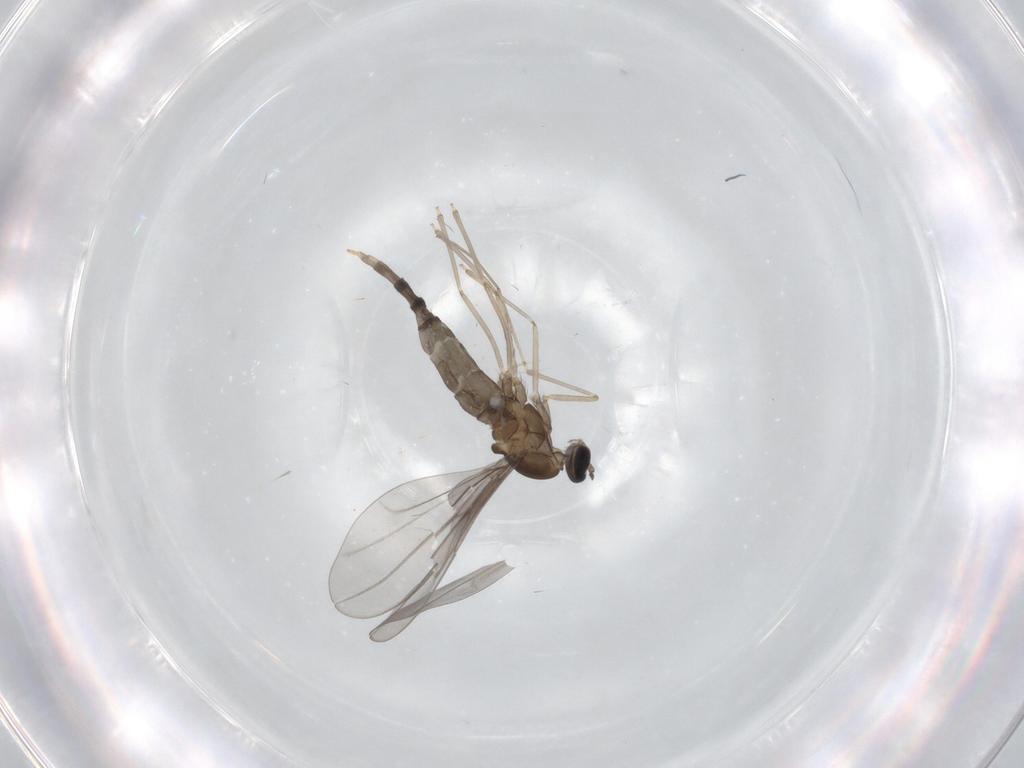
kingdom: Animalia
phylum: Arthropoda
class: Insecta
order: Diptera
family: Cecidomyiidae
